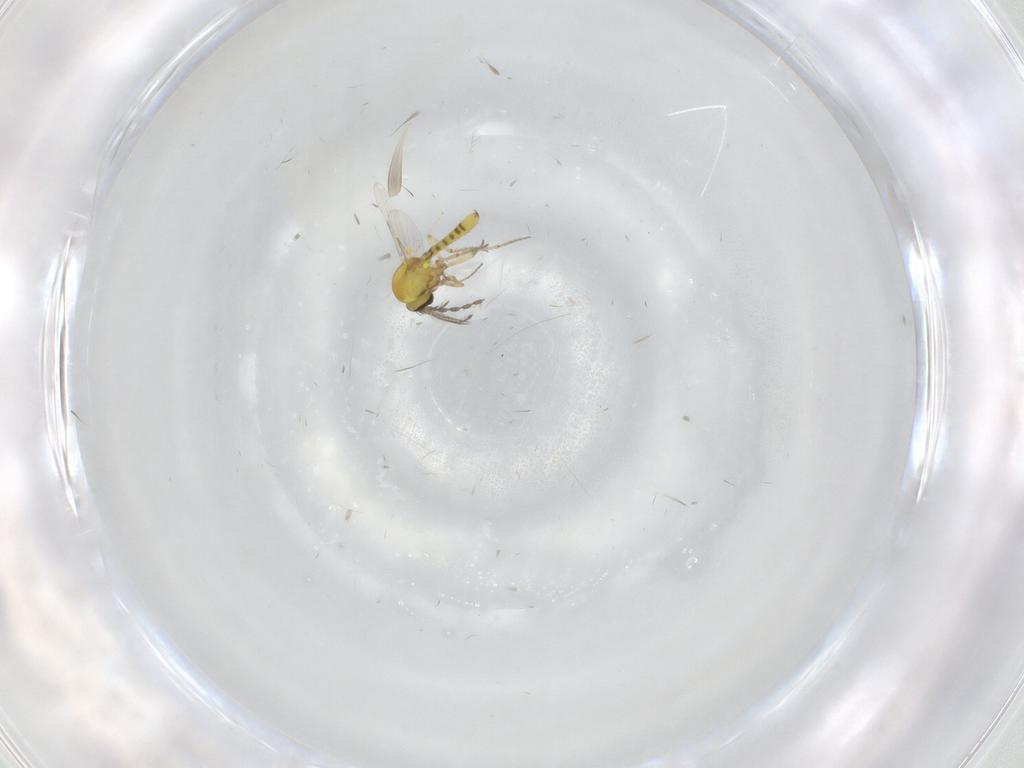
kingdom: Animalia
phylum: Arthropoda
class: Insecta
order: Diptera
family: Ceratopogonidae
